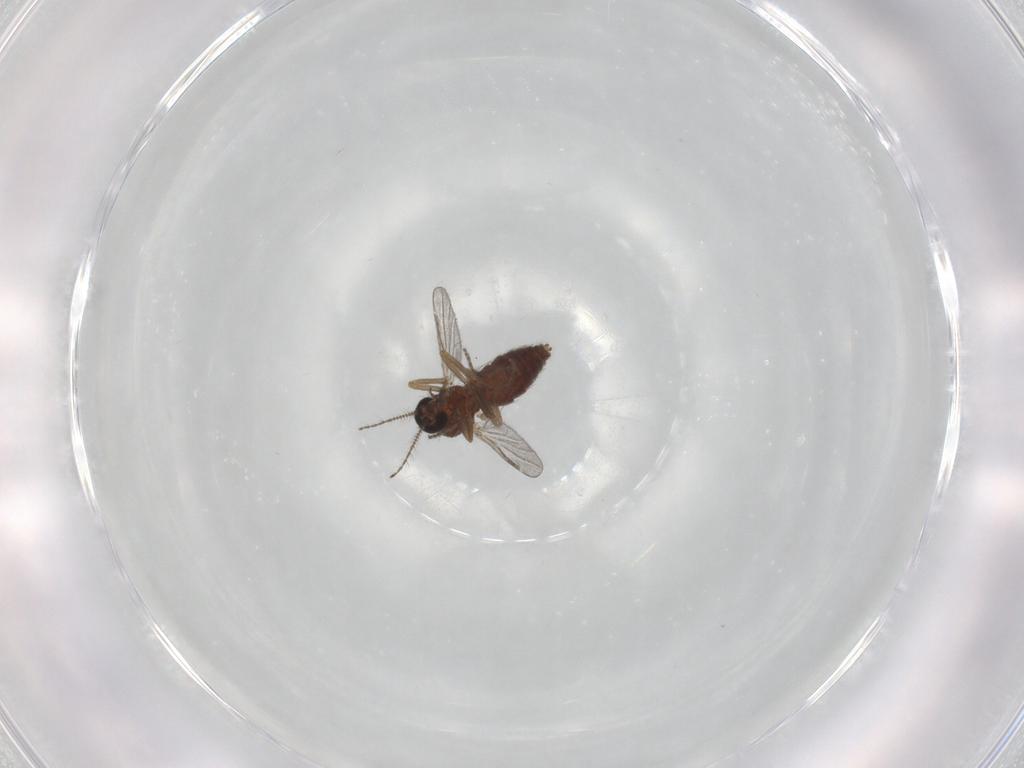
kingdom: Animalia
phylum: Arthropoda
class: Insecta
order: Diptera
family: Ceratopogonidae
